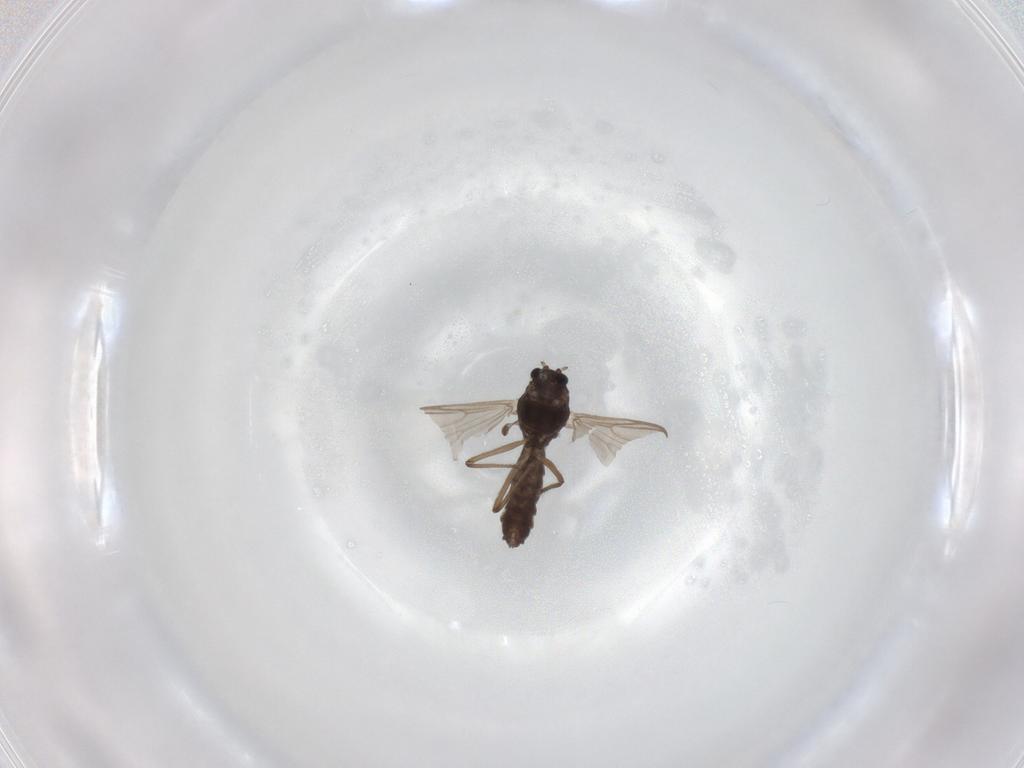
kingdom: Animalia
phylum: Arthropoda
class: Insecta
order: Diptera
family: Chironomidae
